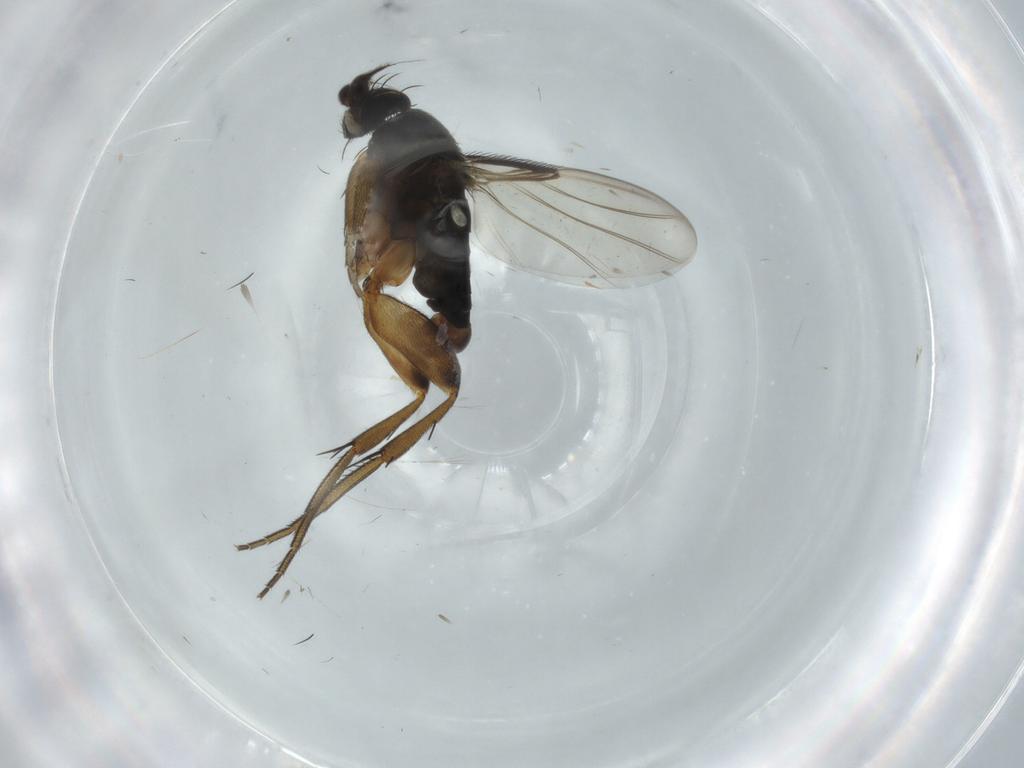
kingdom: Animalia
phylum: Arthropoda
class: Insecta
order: Diptera
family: Phoridae
